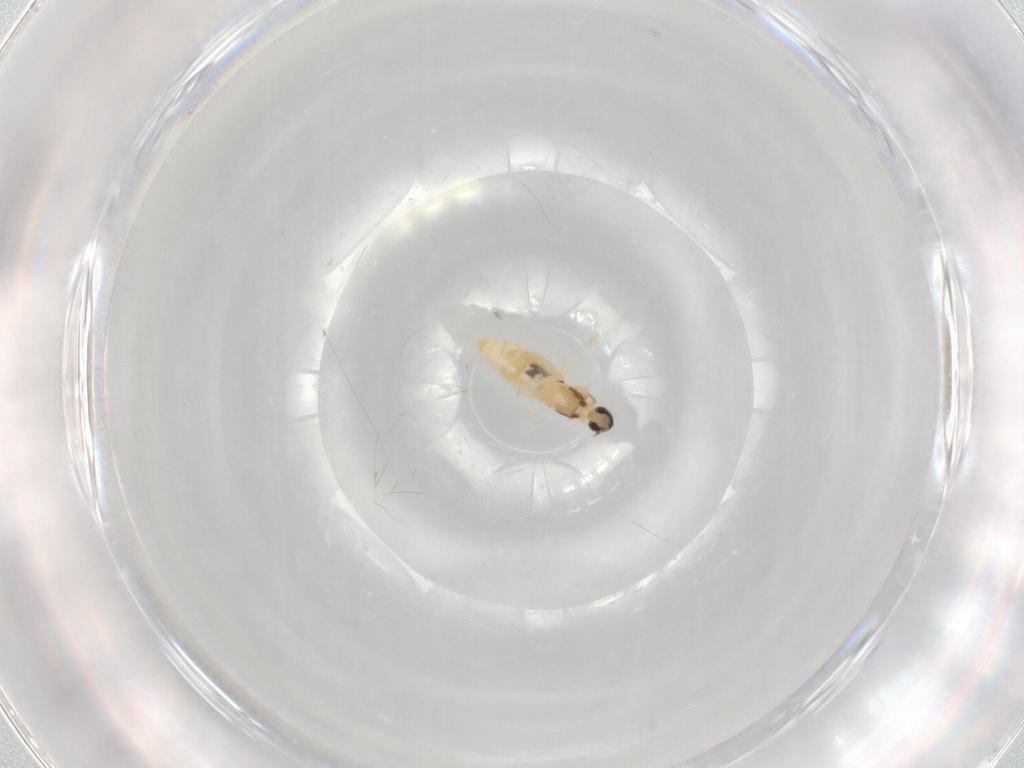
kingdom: Animalia
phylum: Arthropoda
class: Insecta
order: Diptera
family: Cecidomyiidae
